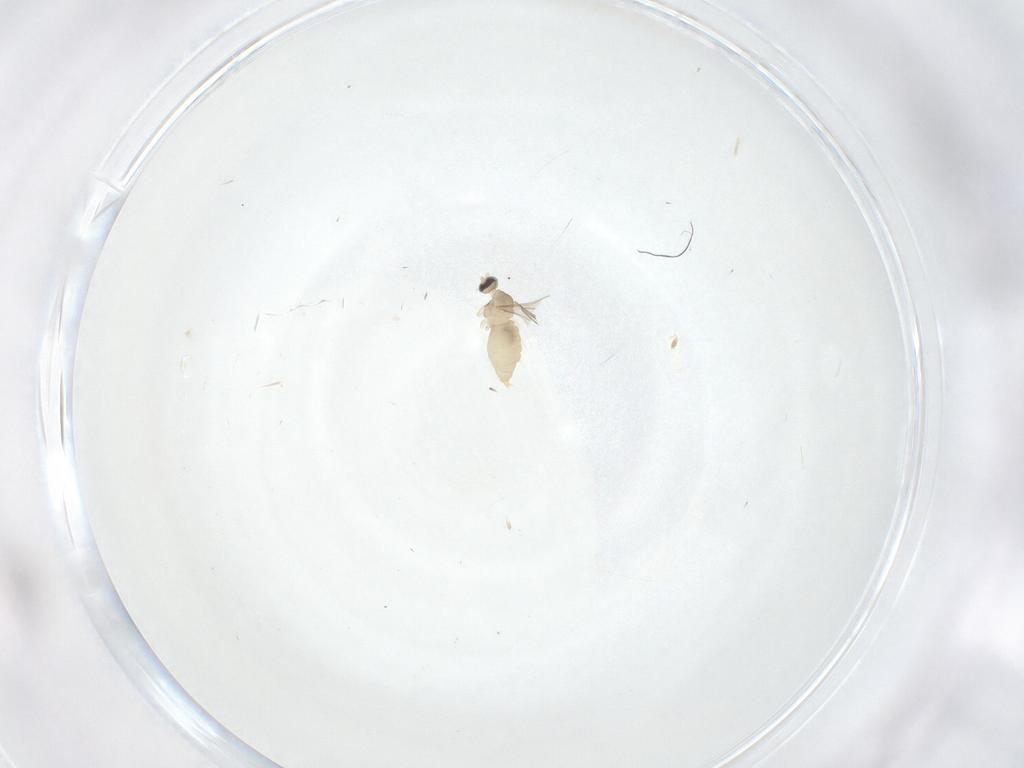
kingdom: Animalia
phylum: Arthropoda
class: Insecta
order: Diptera
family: Cecidomyiidae
